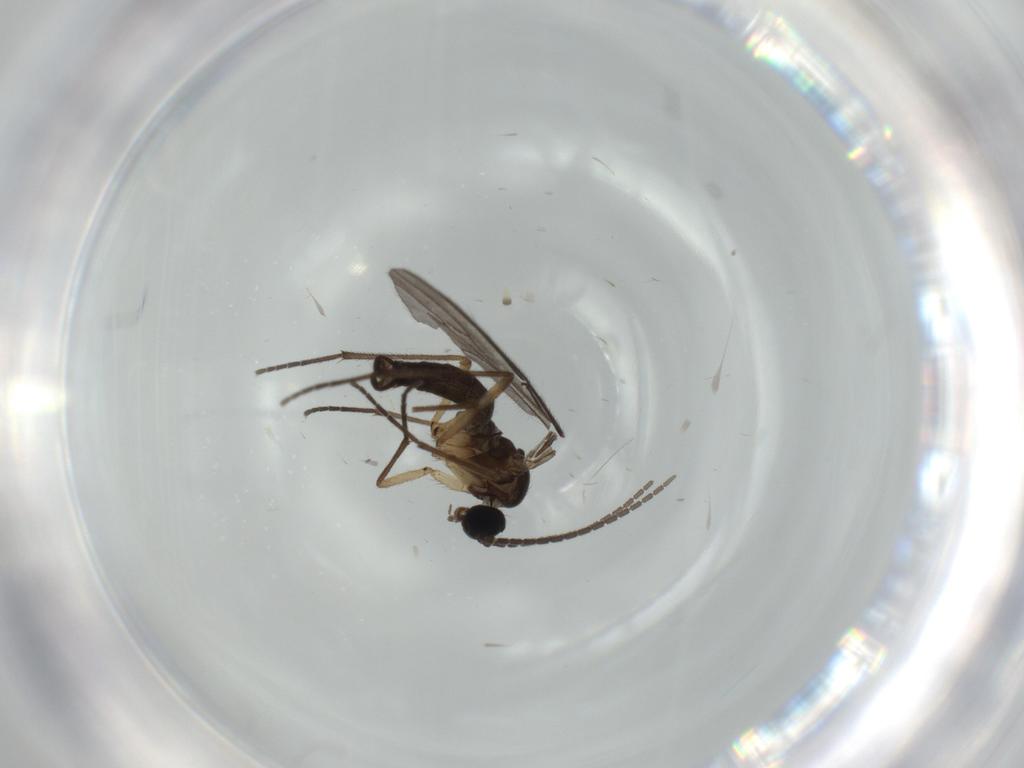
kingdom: Animalia
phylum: Arthropoda
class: Insecta
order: Diptera
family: Sciaridae
